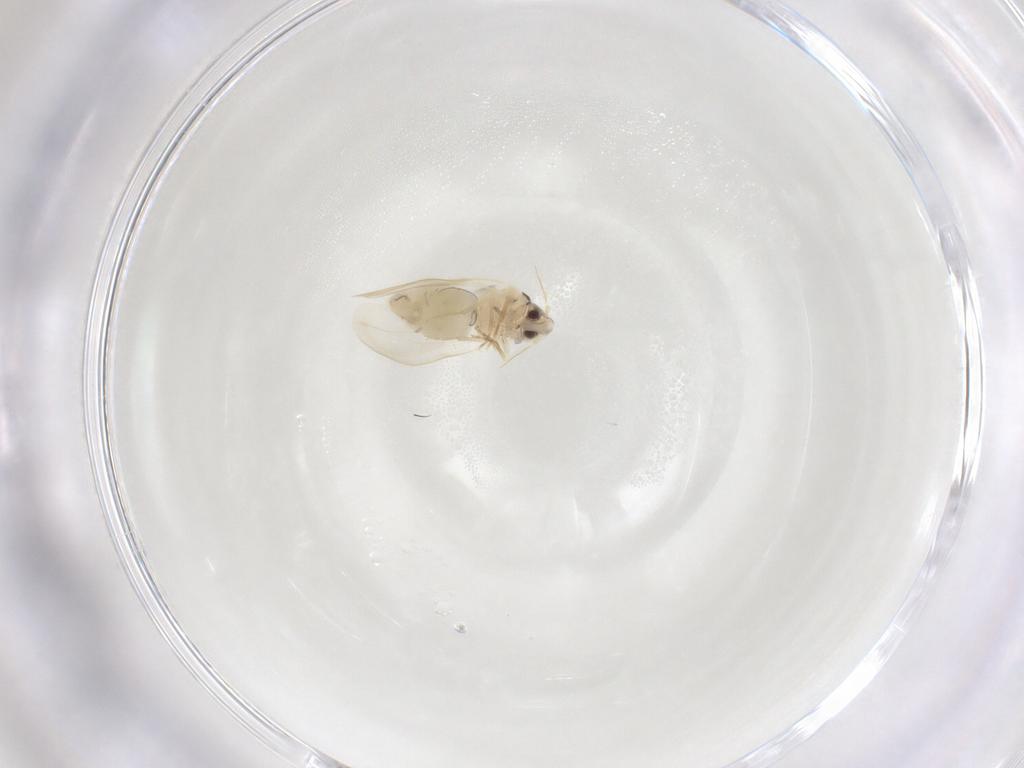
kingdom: Animalia
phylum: Arthropoda
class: Insecta
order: Hemiptera
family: Aleyrodidae
